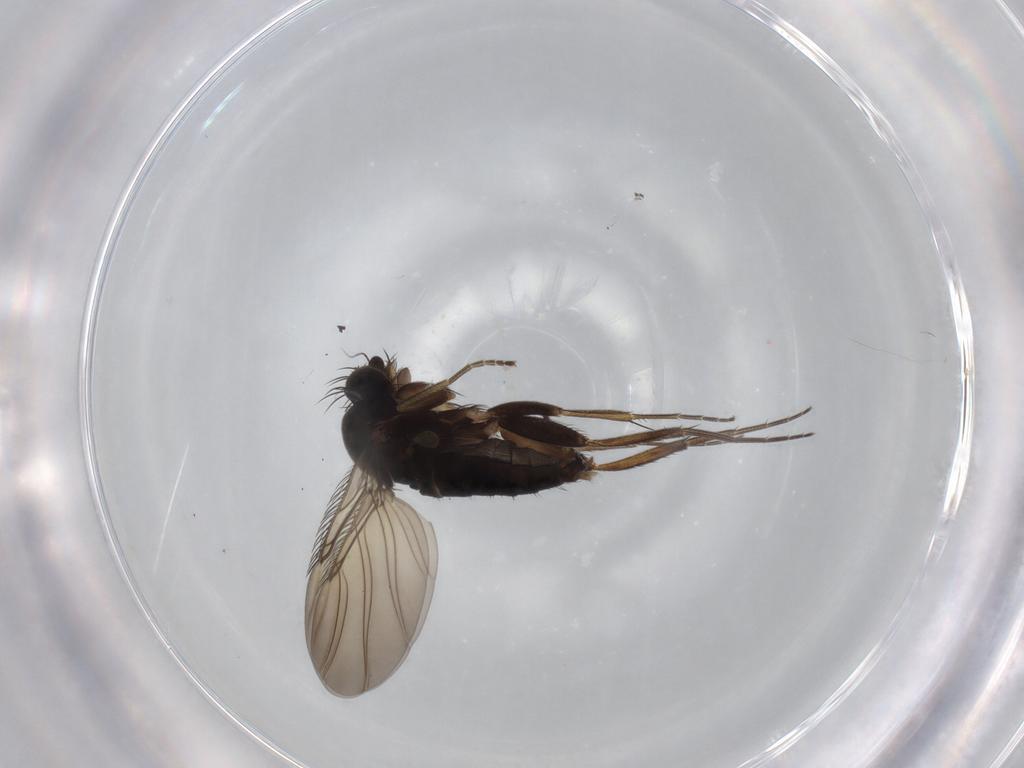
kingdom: Animalia
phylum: Arthropoda
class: Insecta
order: Diptera
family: Phoridae
